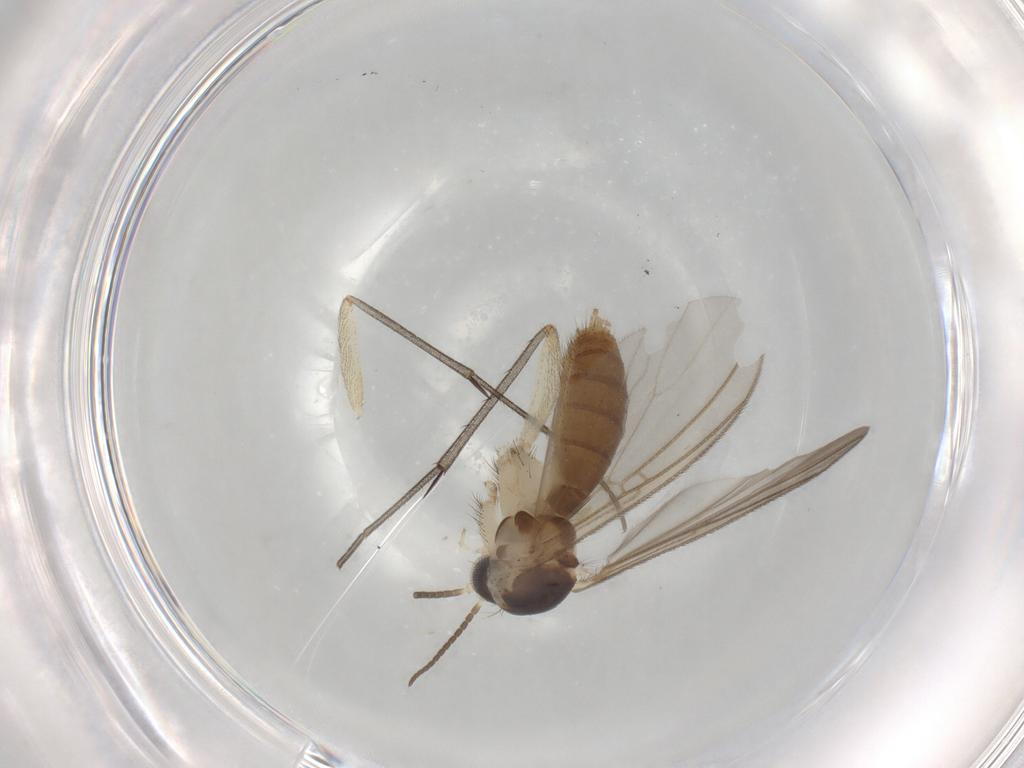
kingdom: Animalia
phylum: Arthropoda
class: Insecta
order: Diptera
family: Mycetophilidae
